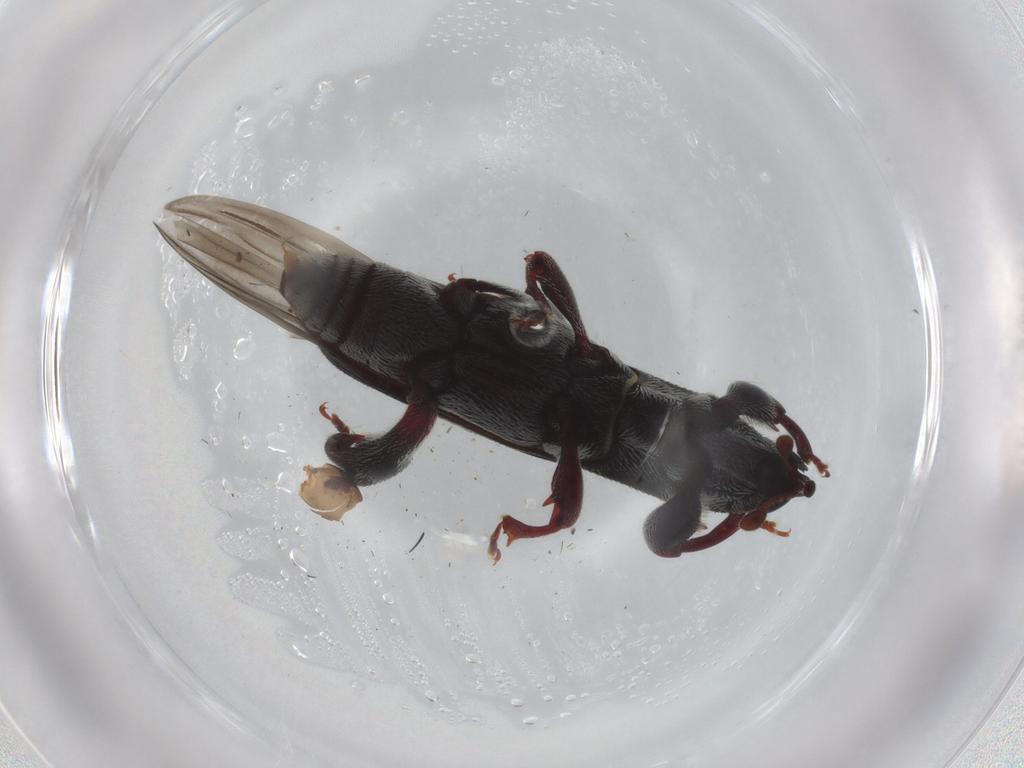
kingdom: Animalia
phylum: Arthropoda
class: Insecta
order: Coleoptera
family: Curculionidae
